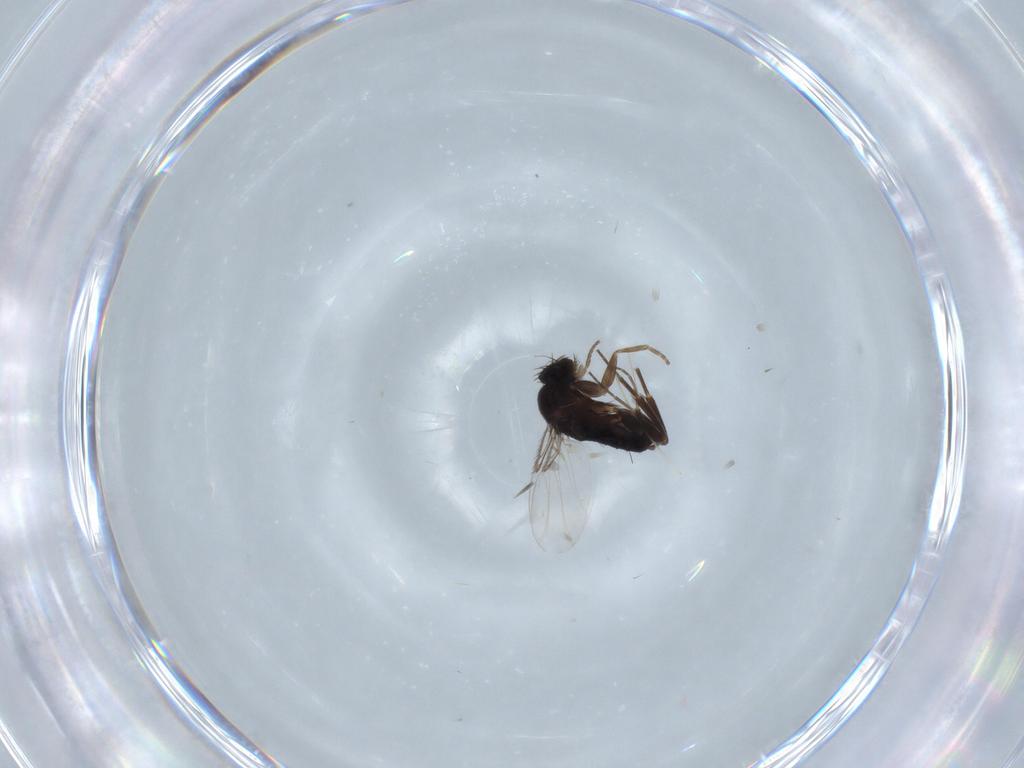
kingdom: Animalia
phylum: Arthropoda
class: Insecta
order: Diptera
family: Phoridae
